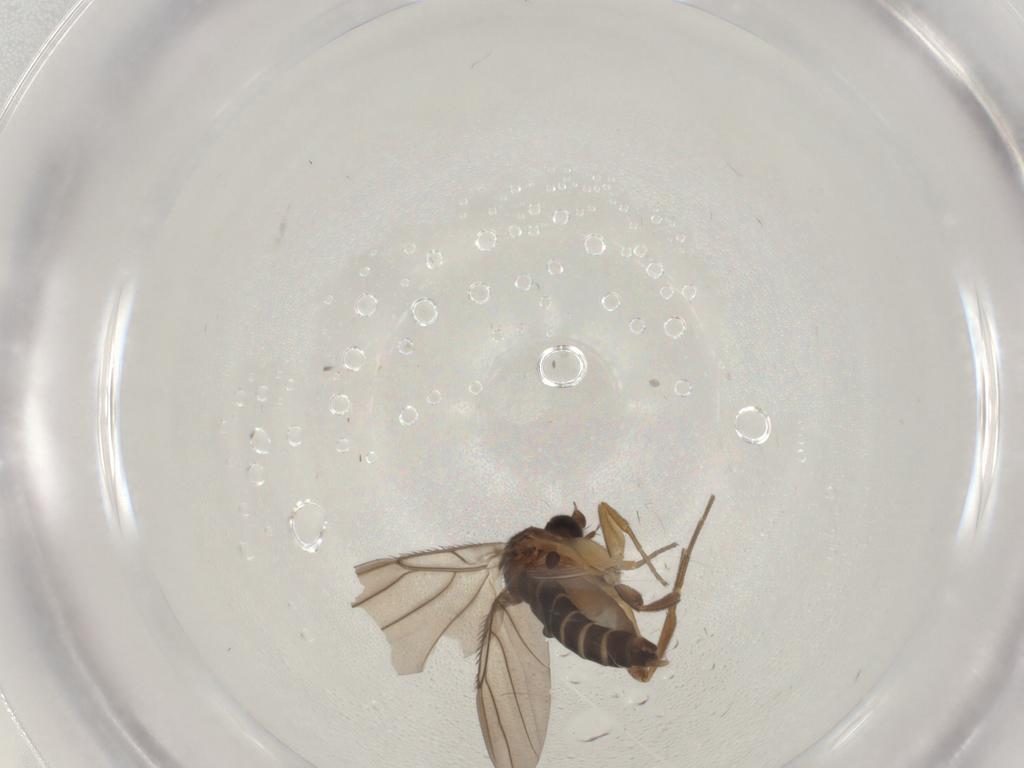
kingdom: Animalia
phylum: Arthropoda
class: Insecta
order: Diptera
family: Phoridae
